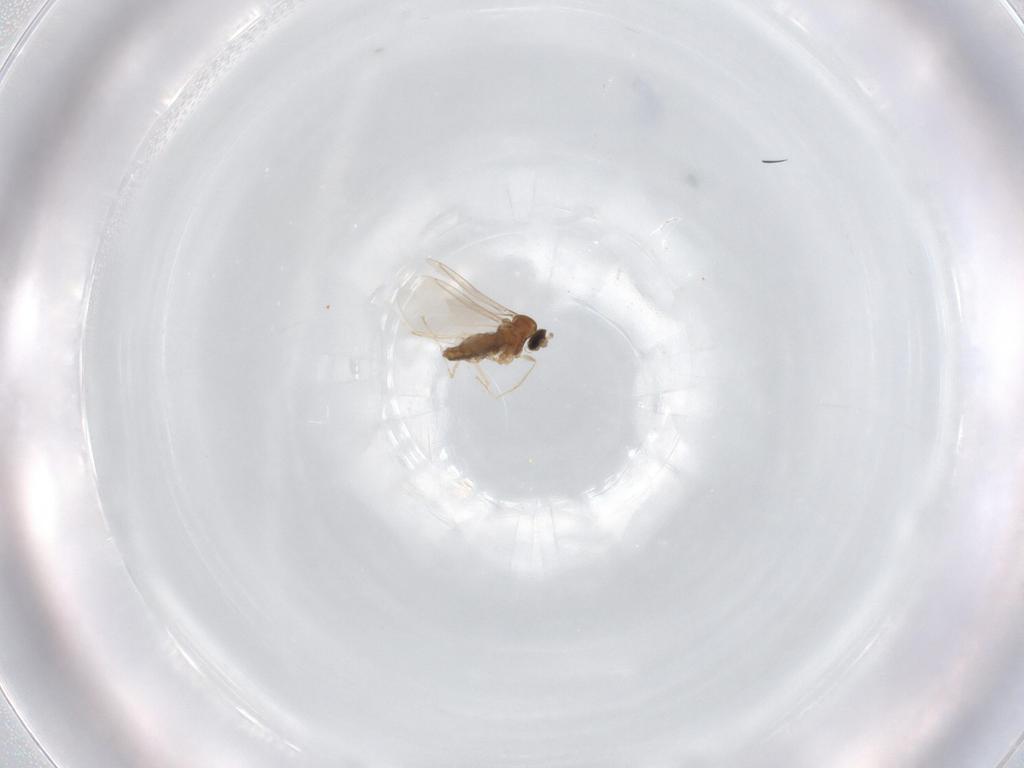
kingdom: Animalia
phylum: Arthropoda
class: Insecta
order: Diptera
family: Cecidomyiidae
